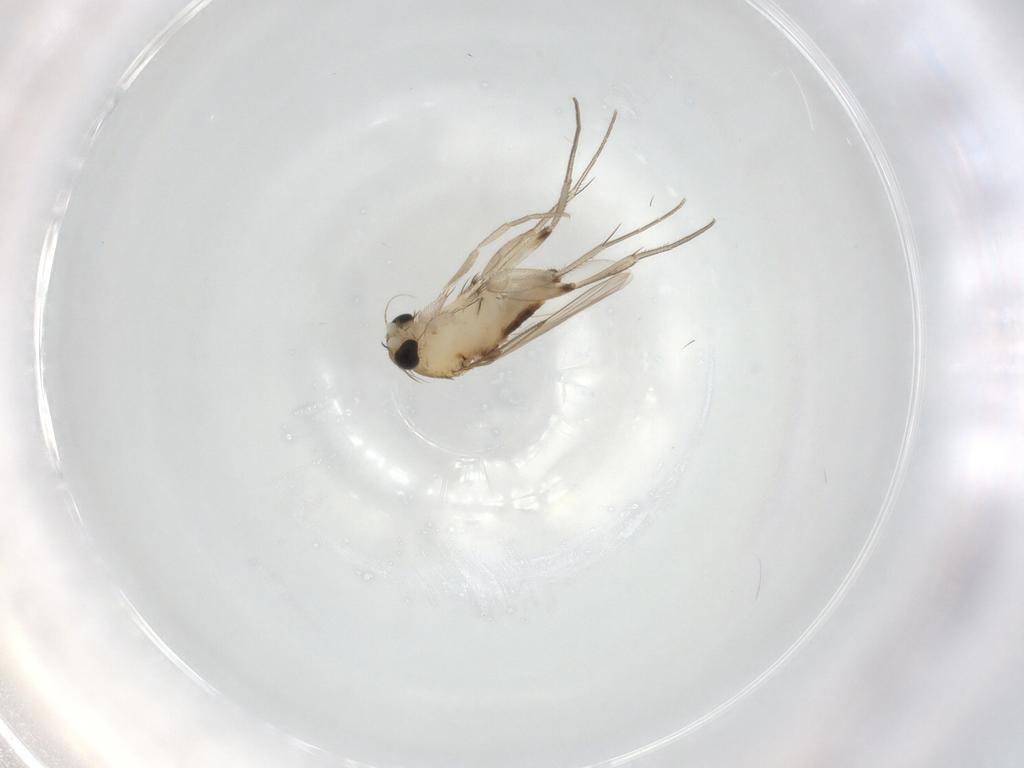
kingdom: Animalia
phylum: Arthropoda
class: Insecta
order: Diptera
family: Phoridae
